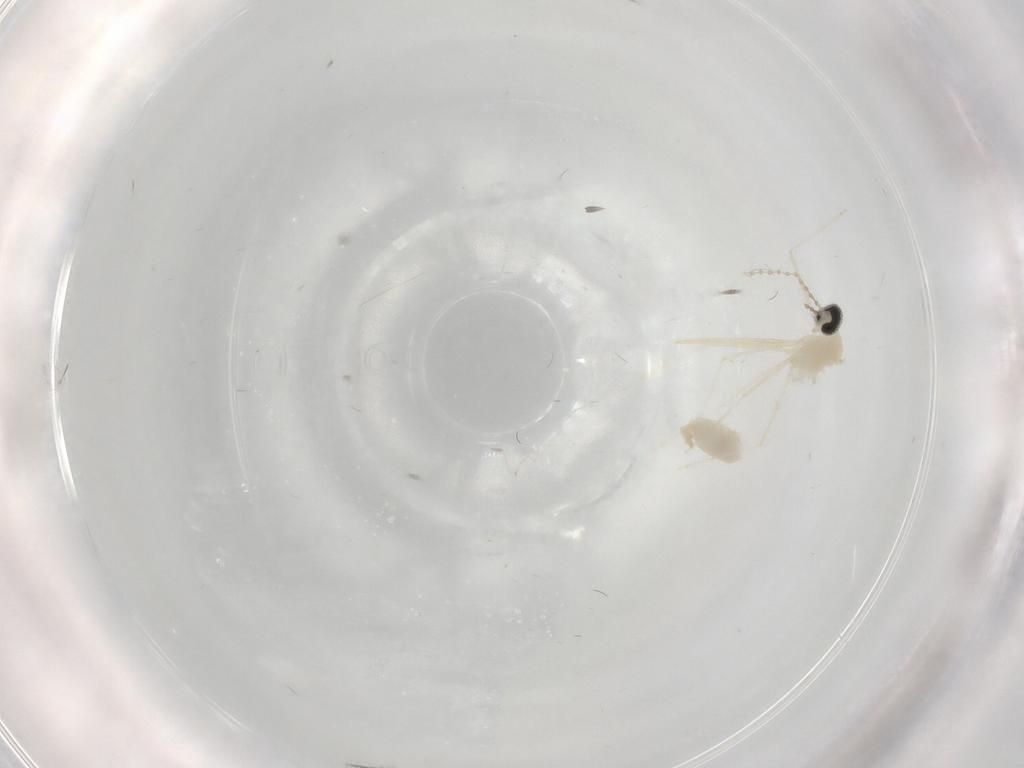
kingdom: Animalia
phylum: Arthropoda
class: Insecta
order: Diptera
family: Cecidomyiidae
